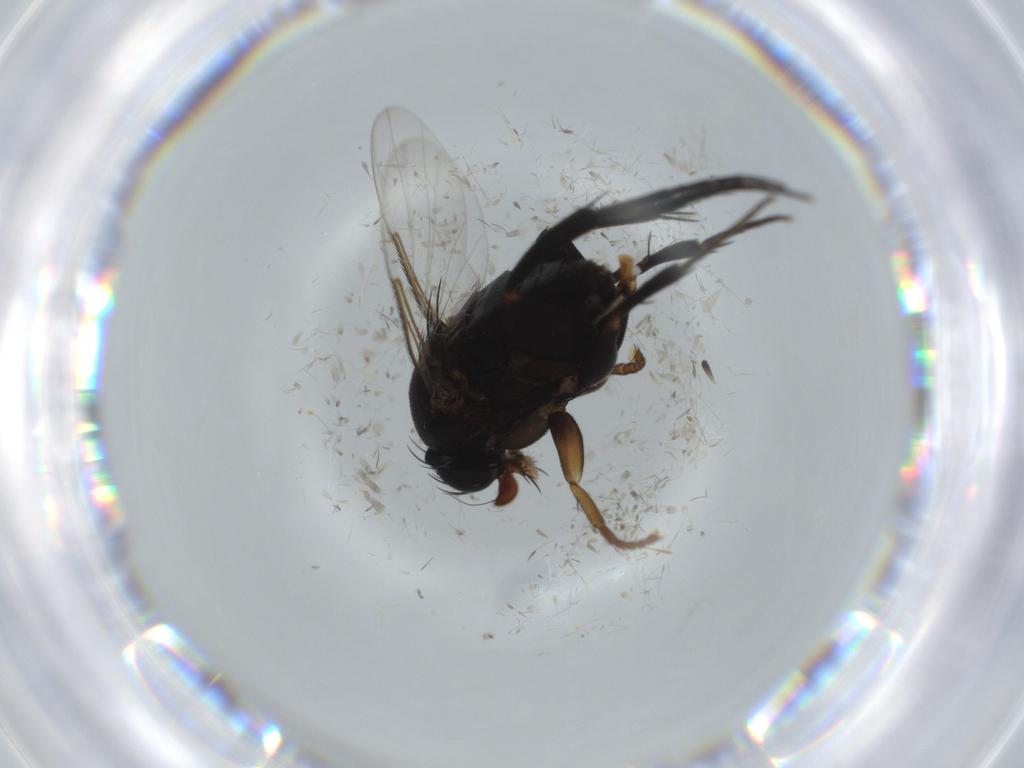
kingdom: Animalia
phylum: Arthropoda
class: Insecta
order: Diptera
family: Phoridae
